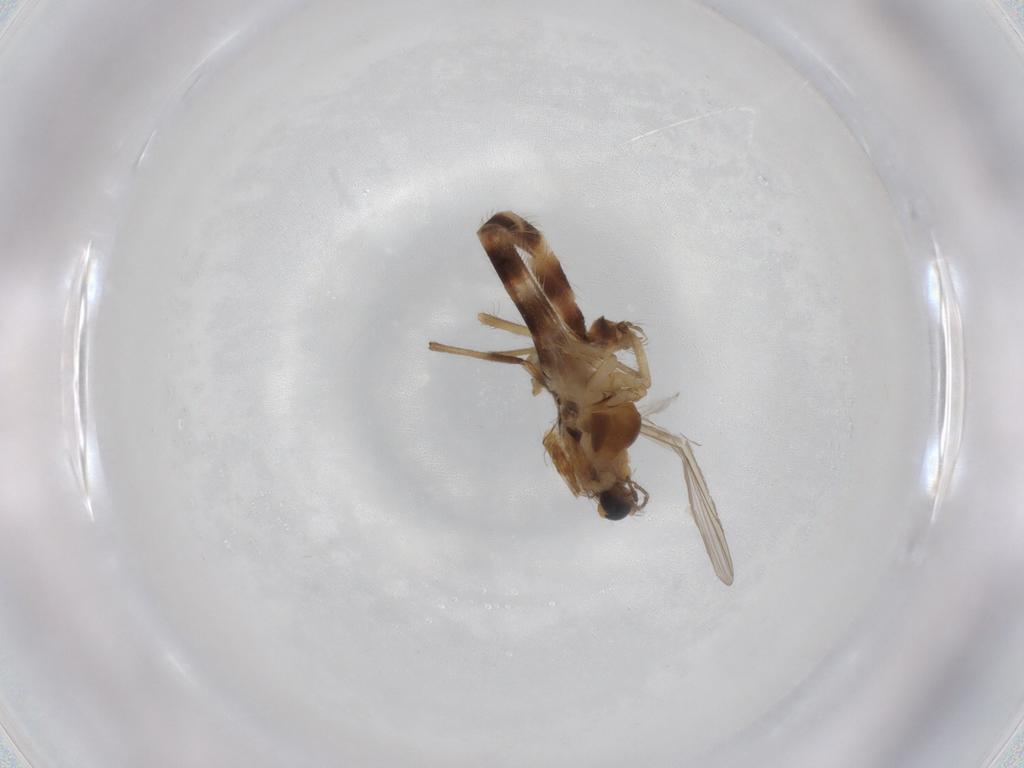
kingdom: Animalia
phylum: Arthropoda
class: Insecta
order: Diptera
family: Chironomidae
